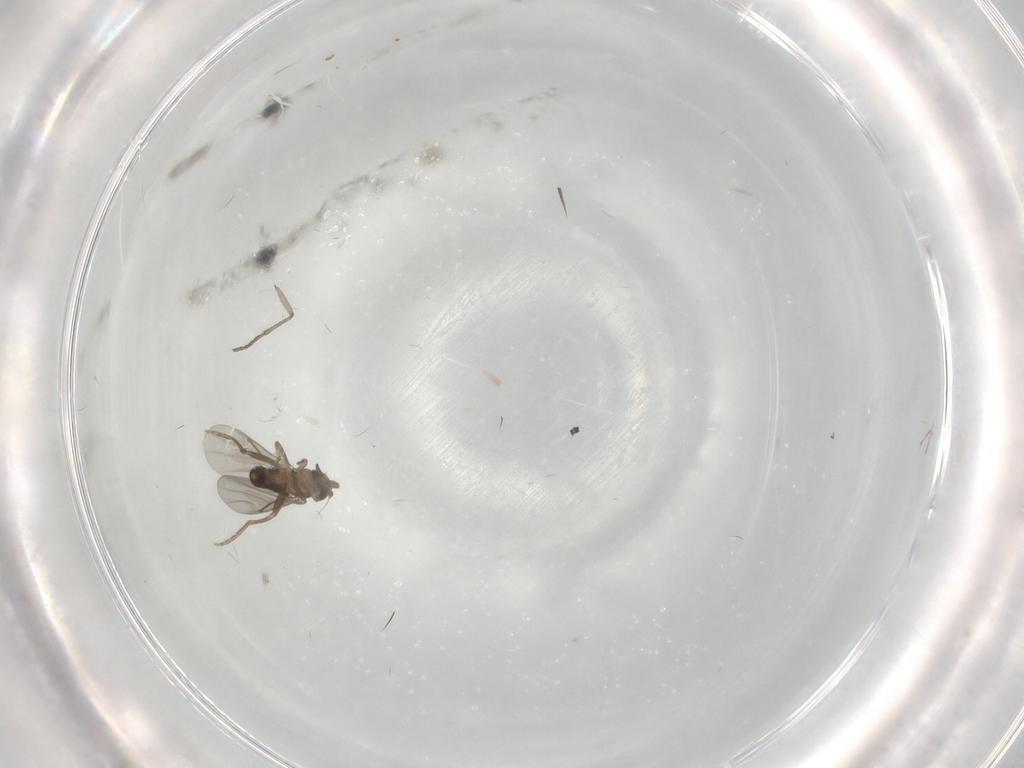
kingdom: Animalia
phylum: Arthropoda
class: Insecta
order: Diptera
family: Sciaridae
